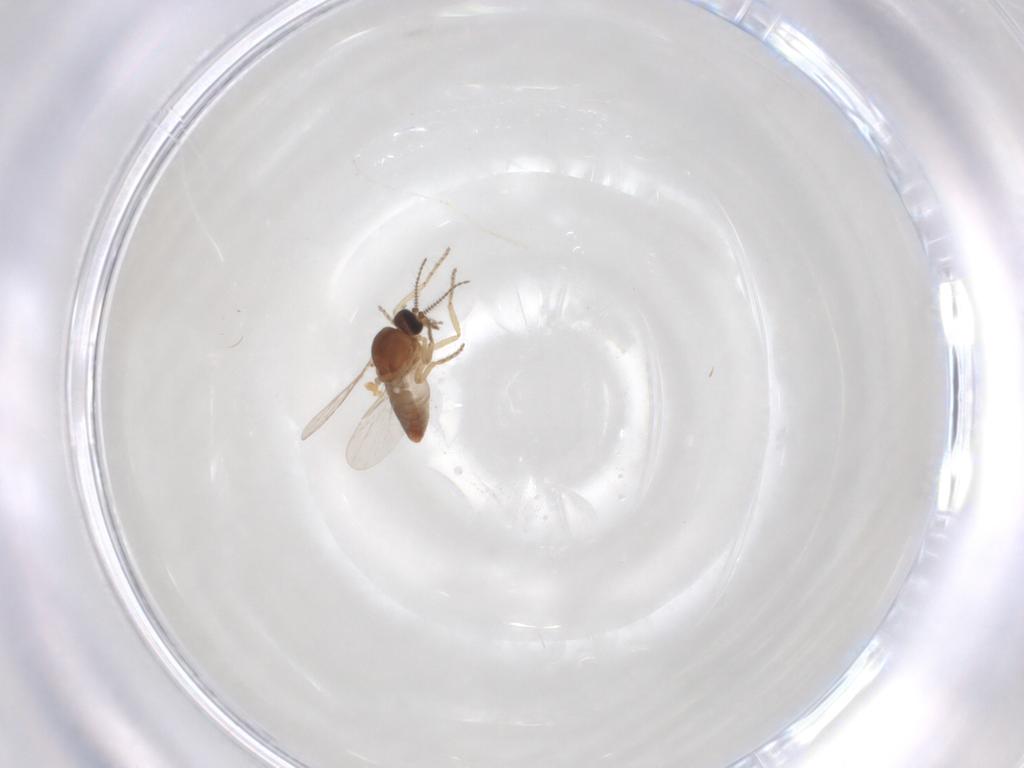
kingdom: Animalia
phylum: Arthropoda
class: Insecta
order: Diptera
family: Ceratopogonidae
